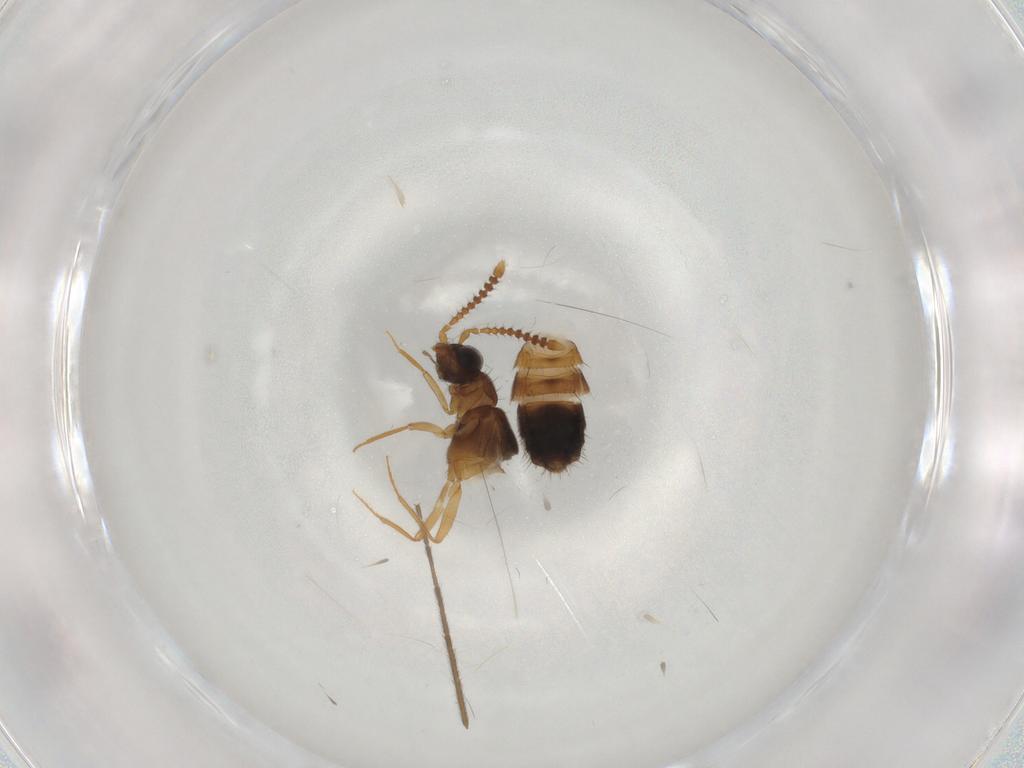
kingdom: Animalia
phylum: Arthropoda
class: Insecta
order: Coleoptera
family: Staphylinidae
